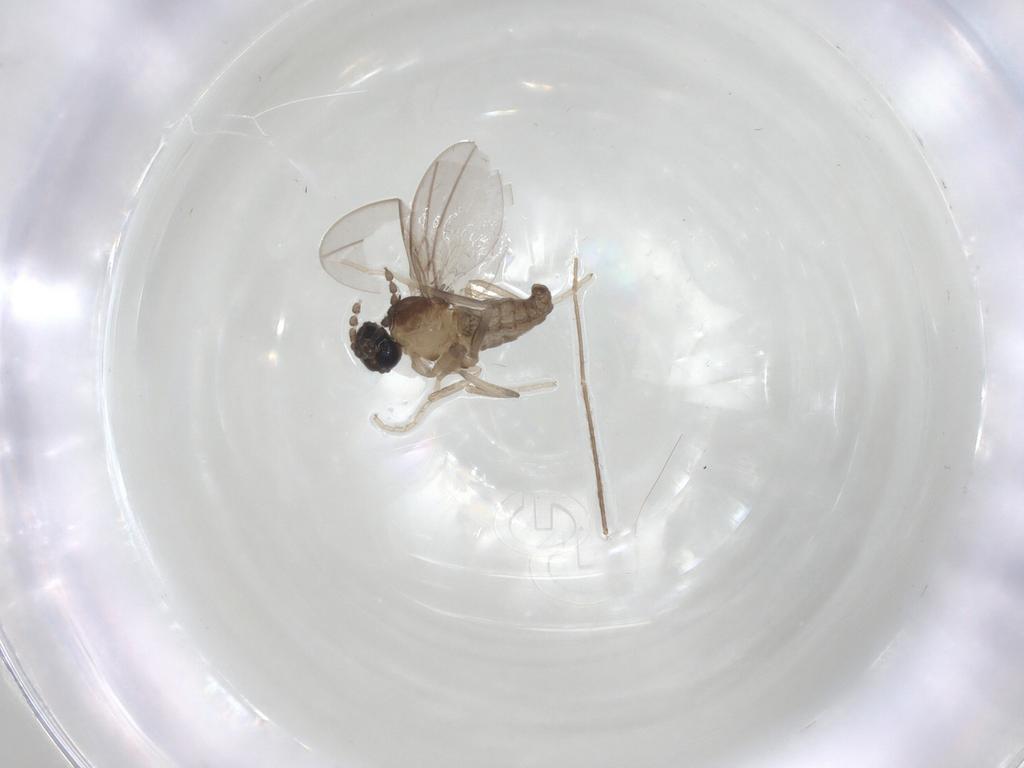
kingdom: Animalia
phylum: Arthropoda
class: Insecta
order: Diptera
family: Cecidomyiidae
